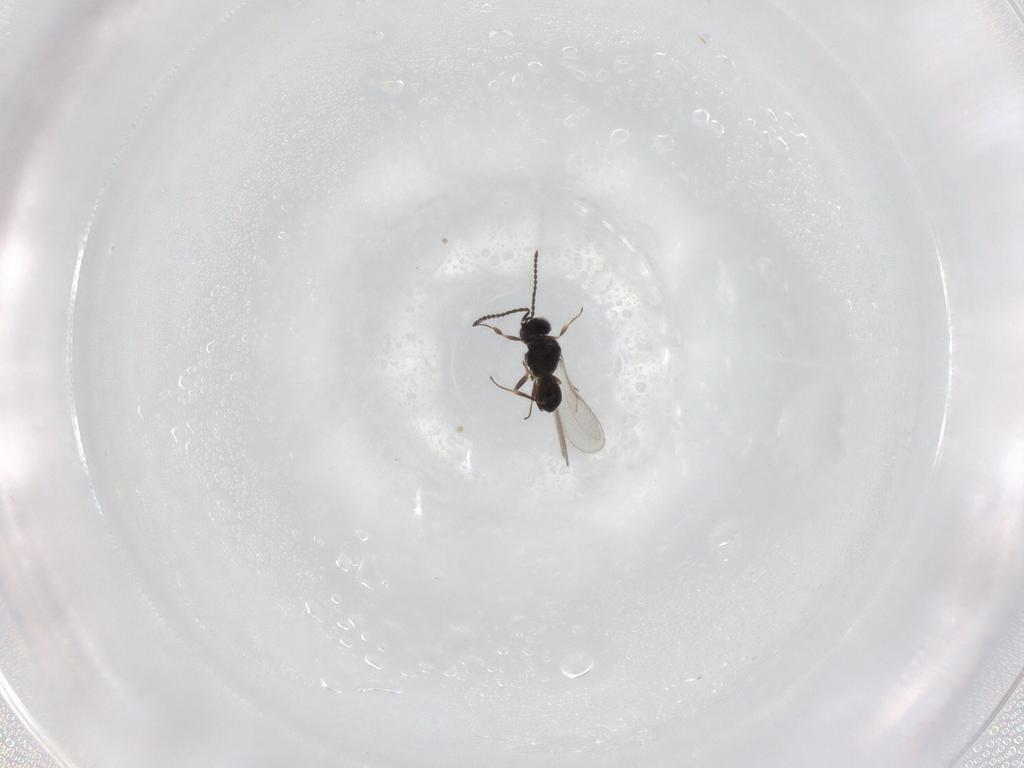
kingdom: Animalia
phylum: Arthropoda
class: Insecta
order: Hymenoptera
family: Scelionidae
